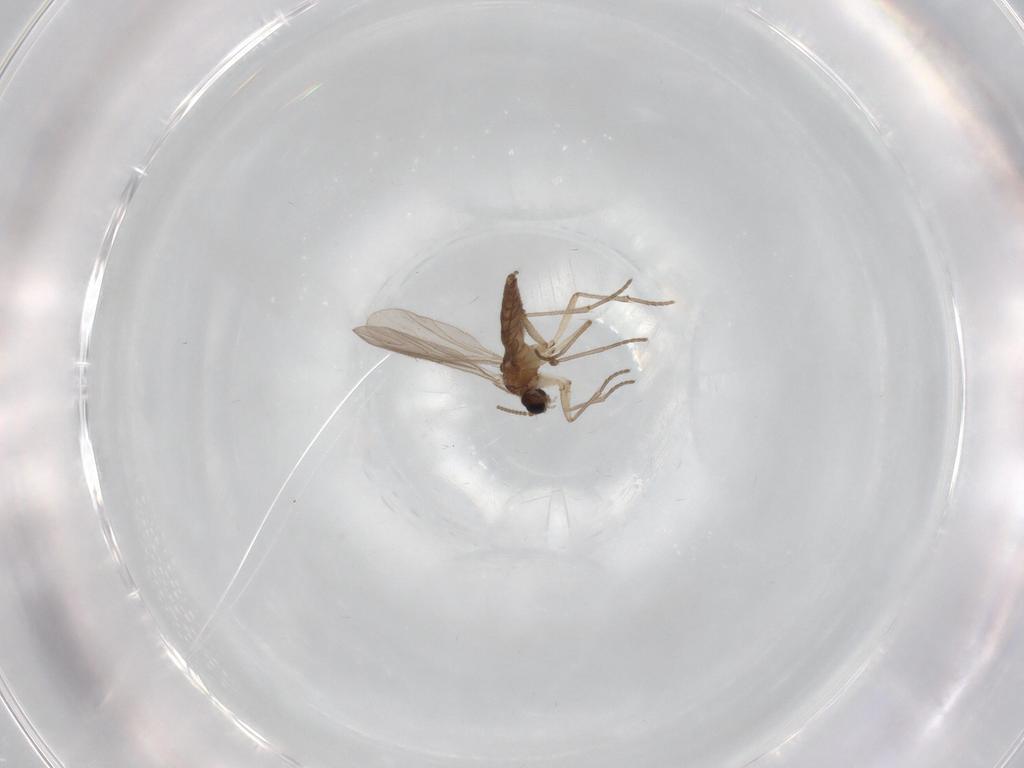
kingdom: Animalia
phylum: Arthropoda
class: Insecta
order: Diptera
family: Sciaridae
